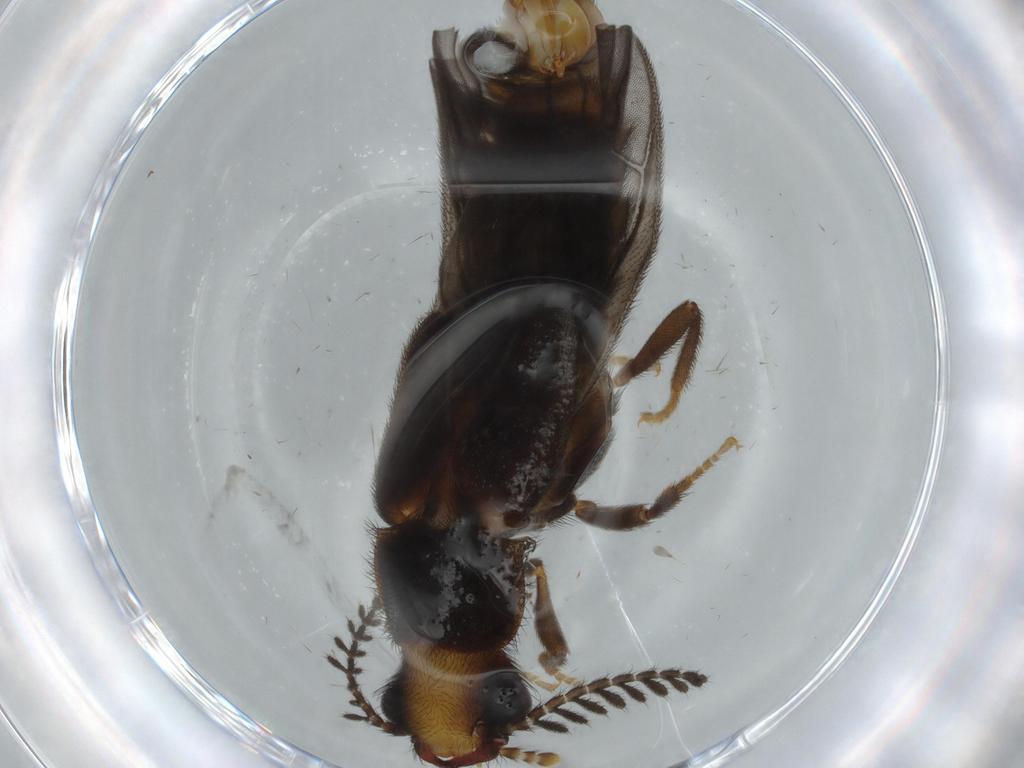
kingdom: Animalia
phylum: Arthropoda
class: Insecta
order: Coleoptera
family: Phengodidae
